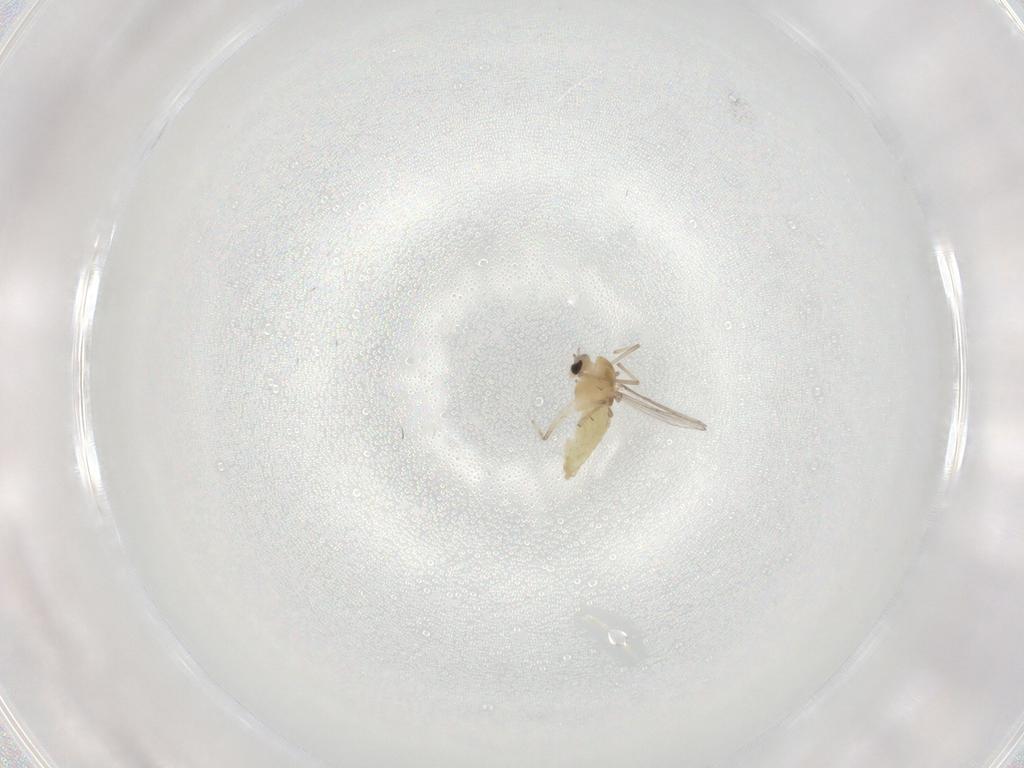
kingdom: Animalia
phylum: Arthropoda
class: Insecta
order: Diptera
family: Chironomidae
